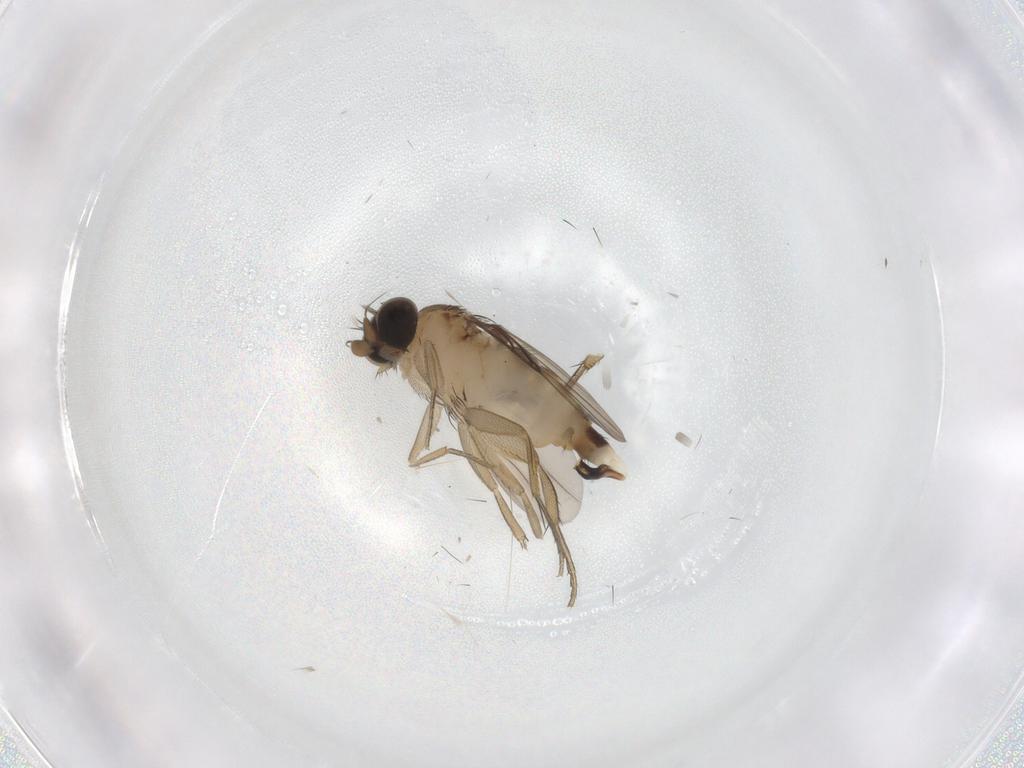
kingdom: Animalia
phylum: Arthropoda
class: Insecta
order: Diptera
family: Phoridae
